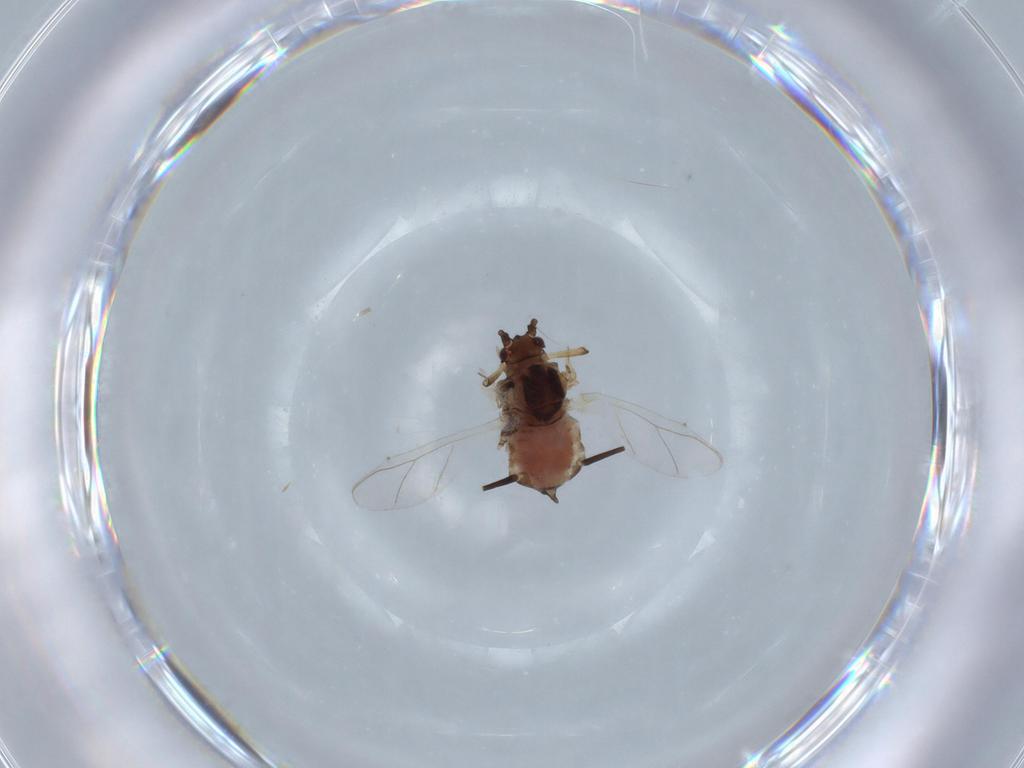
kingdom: Animalia
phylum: Arthropoda
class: Insecta
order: Hemiptera
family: Aphididae
